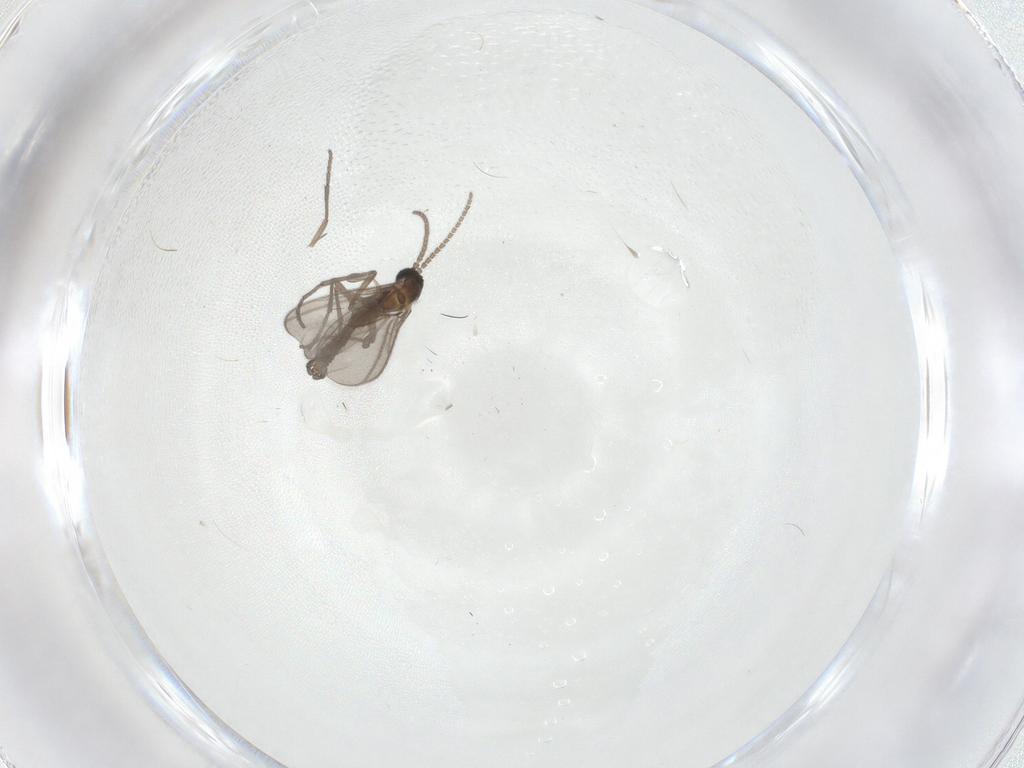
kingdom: Animalia
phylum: Arthropoda
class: Insecta
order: Diptera
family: Sciaridae
